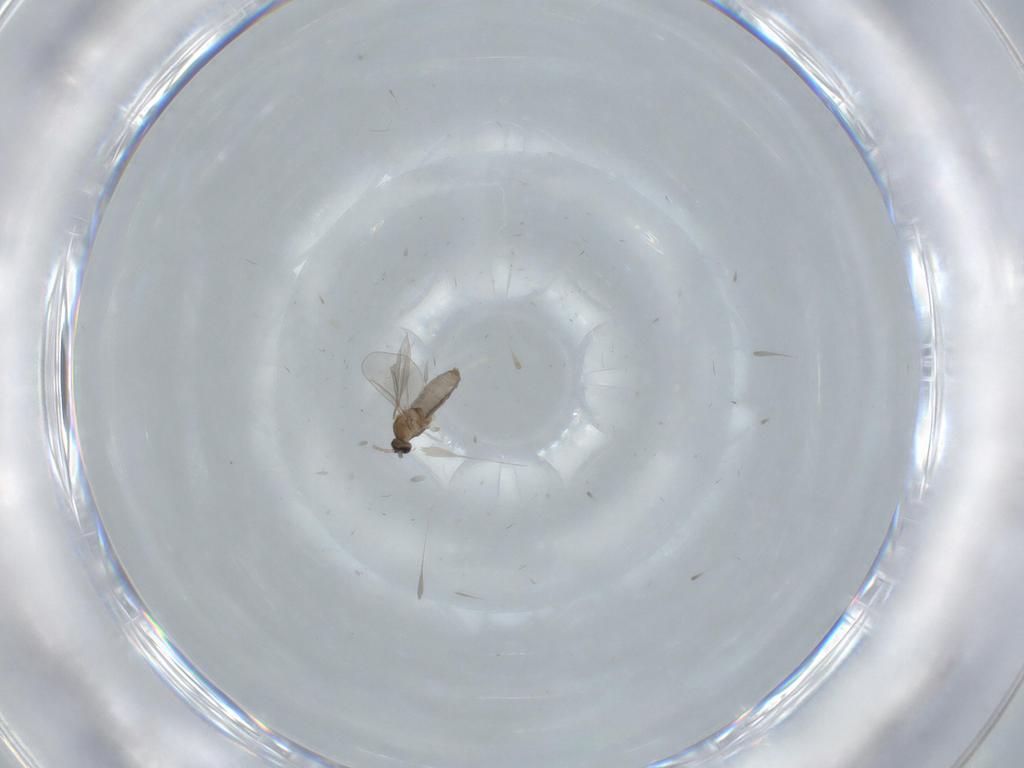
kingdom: Animalia
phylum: Arthropoda
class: Insecta
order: Diptera
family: Cecidomyiidae
